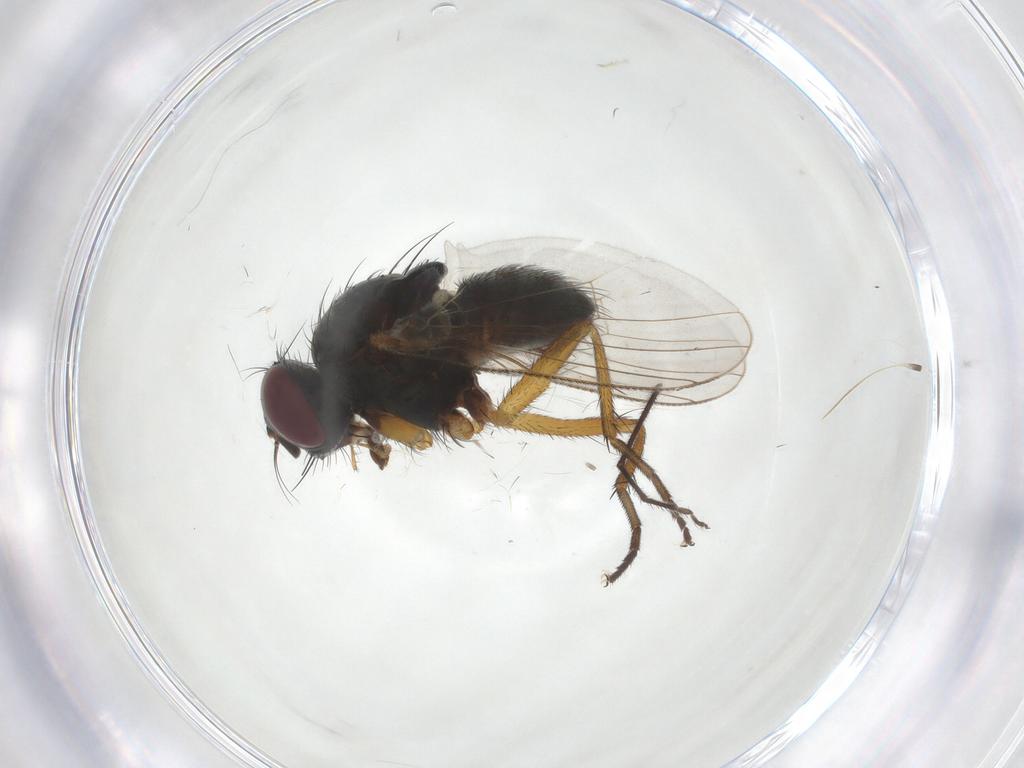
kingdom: Animalia
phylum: Arthropoda
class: Insecta
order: Diptera
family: Muscidae
